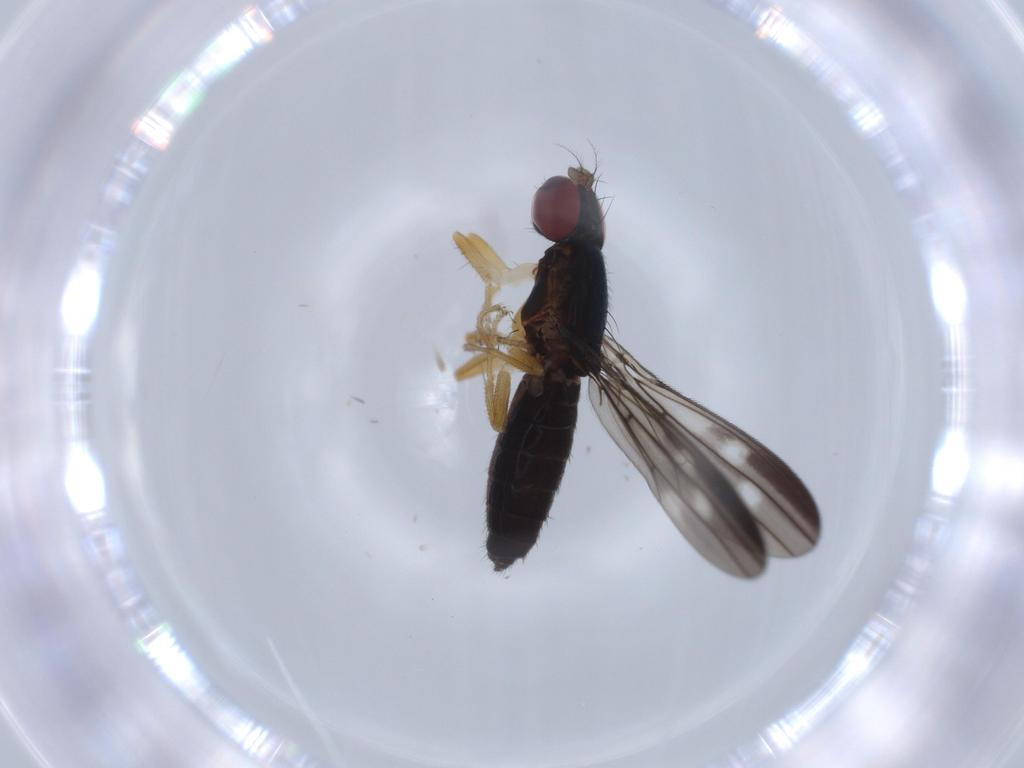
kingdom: Animalia
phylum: Arthropoda
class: Insecta
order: Diptera
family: Anthomyzidae
